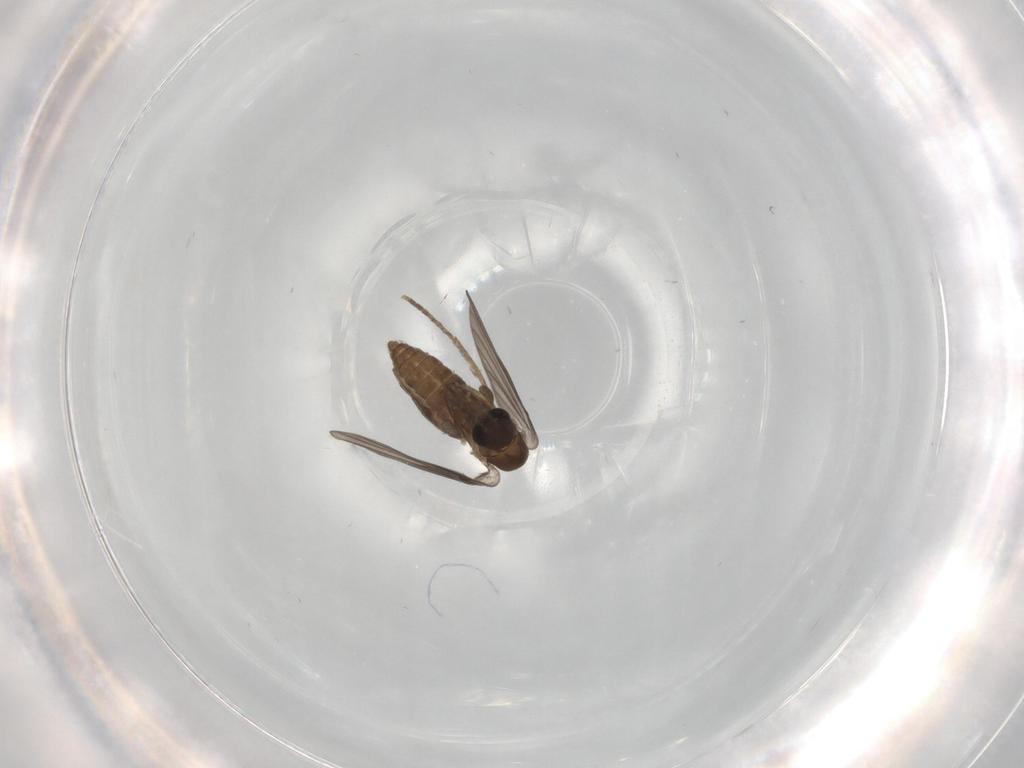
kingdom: Animalia
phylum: Arthropoda
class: Insecta
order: Diptera
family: Psychodidae
